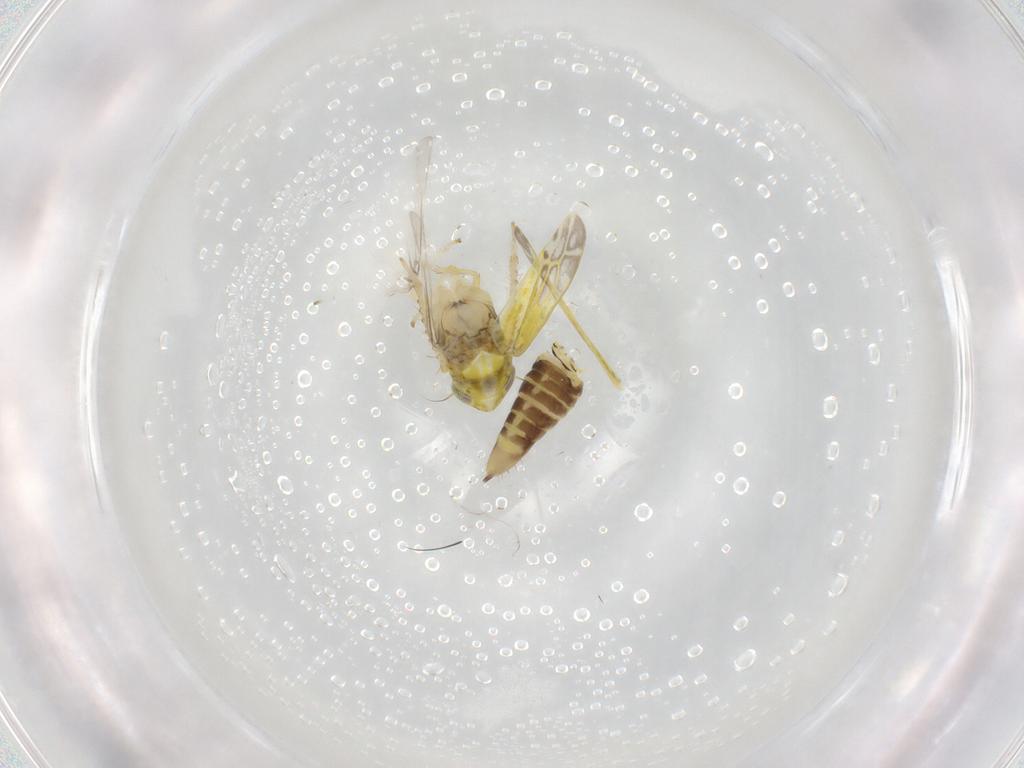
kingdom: Animalia
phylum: Arthropoda
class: Insecta
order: Hemiptera
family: Cicadellidae
